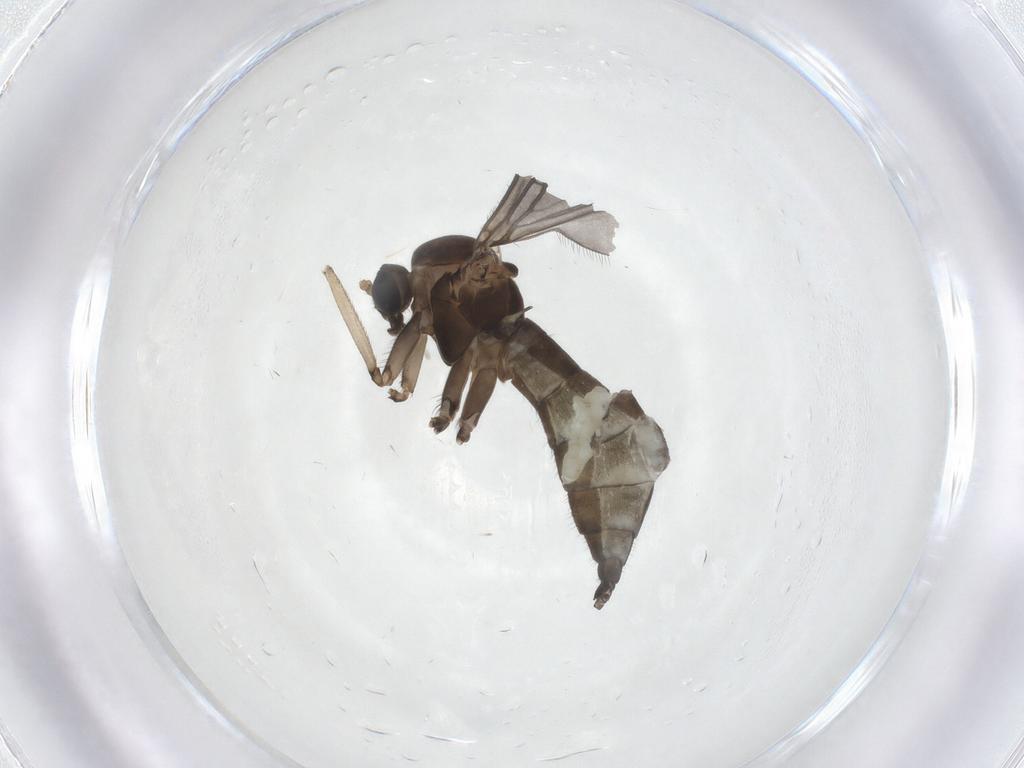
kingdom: Animalia
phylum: Arthropoda
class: Insecta
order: Diptera
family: Sciaridae
